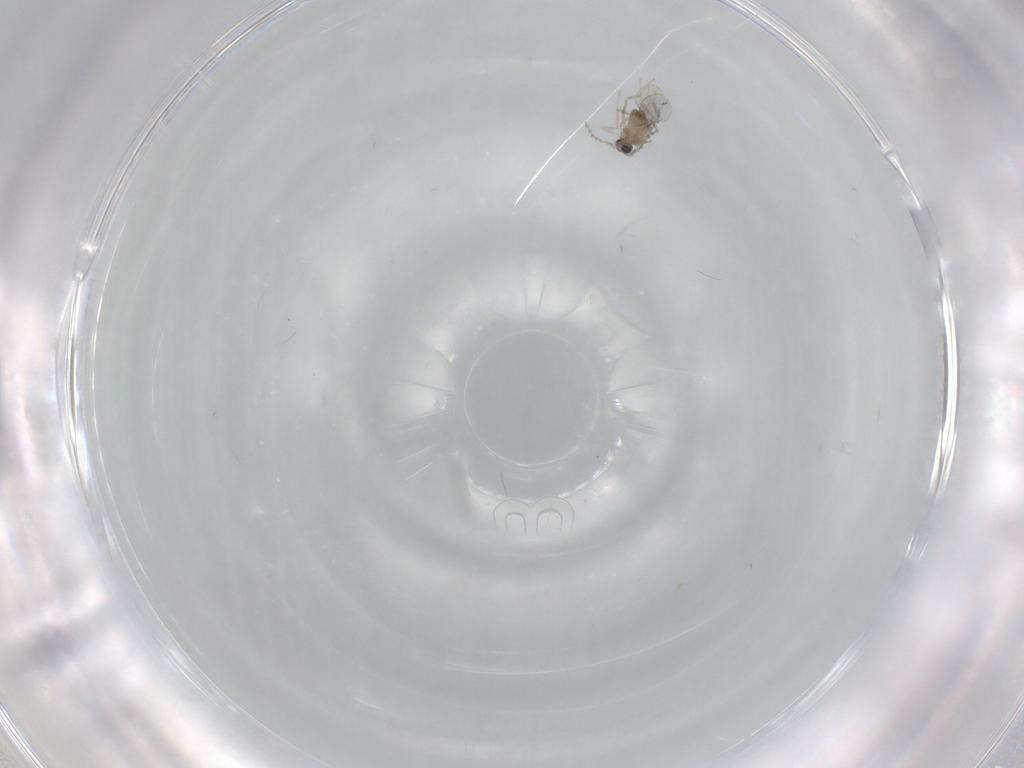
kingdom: Animalia
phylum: Arthropoda
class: Insecta
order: Diptera
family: Cecidomyiidae
